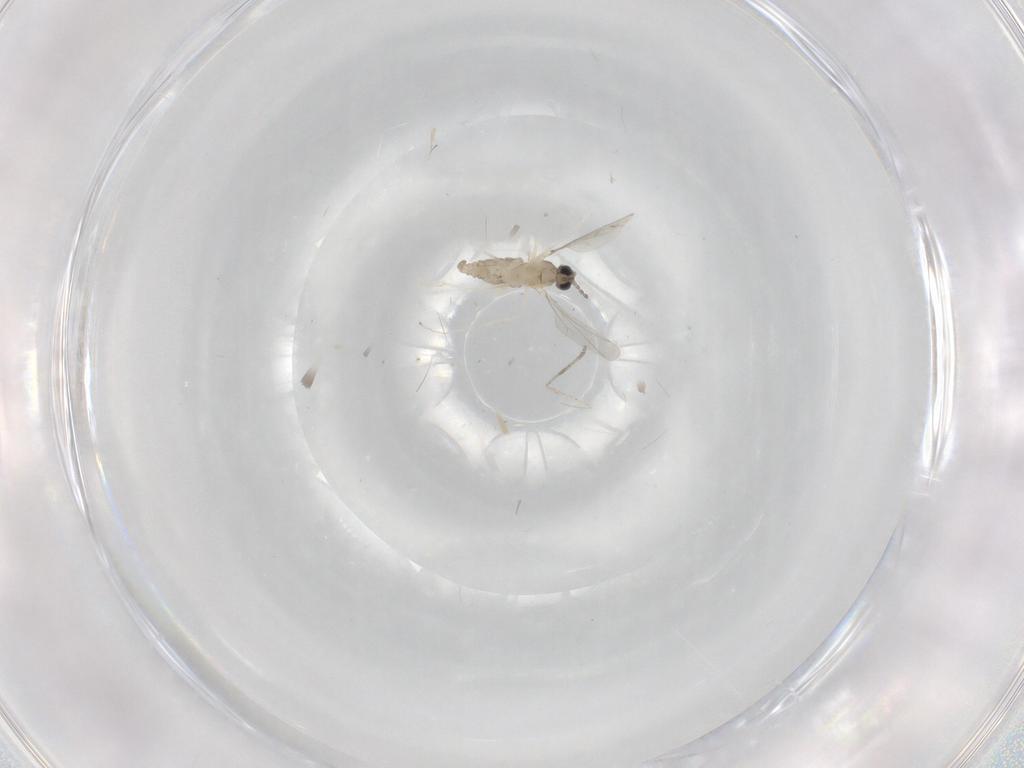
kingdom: Animalia
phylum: Arthropoda
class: Insecta
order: Diptera
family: Cecidomyiidae
